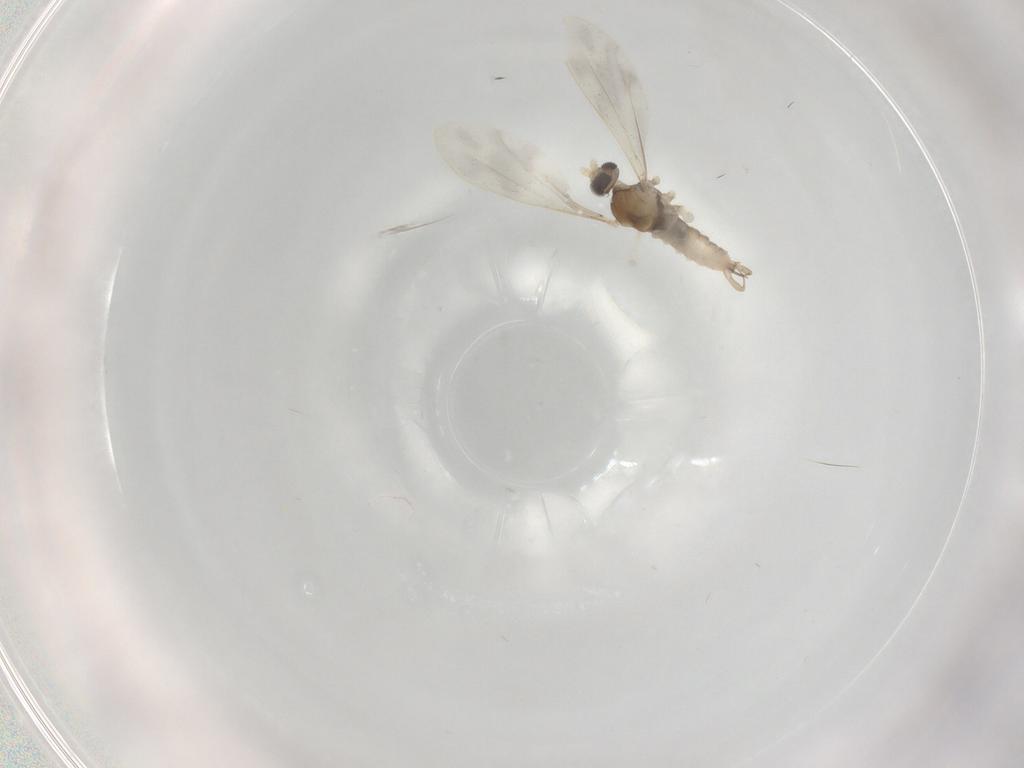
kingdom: Animalia
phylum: Arthropoda
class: Insecta
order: Diptera
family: Cecidomyiidae
